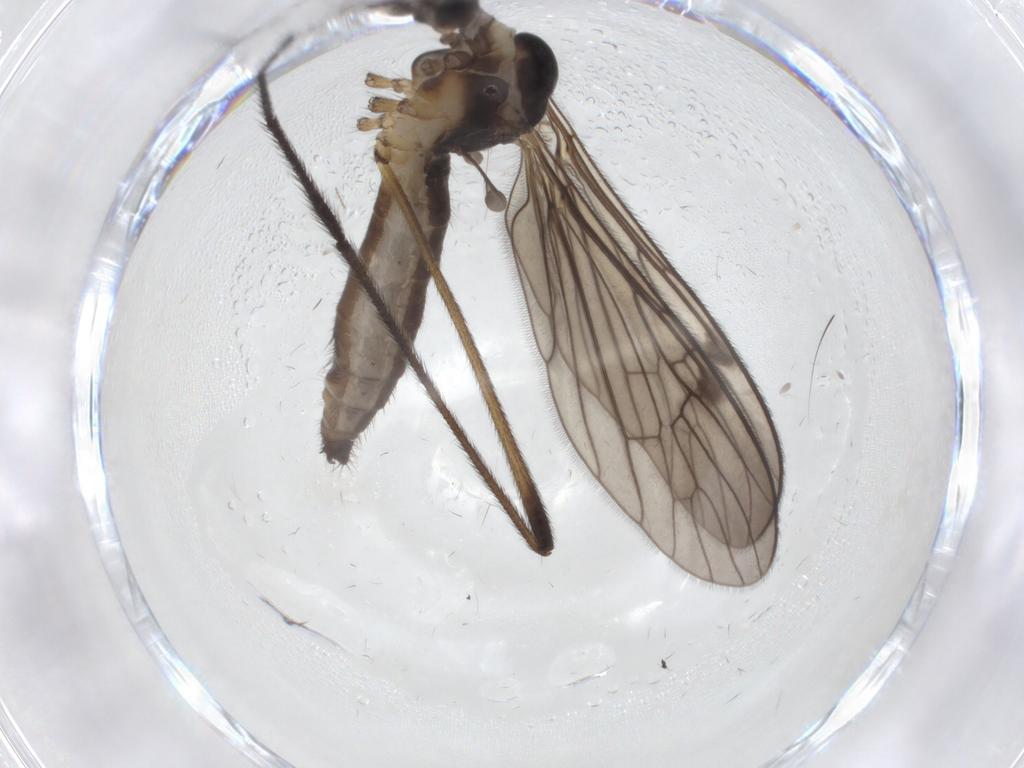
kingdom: Animalia
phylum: Arthropoda
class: Insecta
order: Diptera
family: Limoniidae
